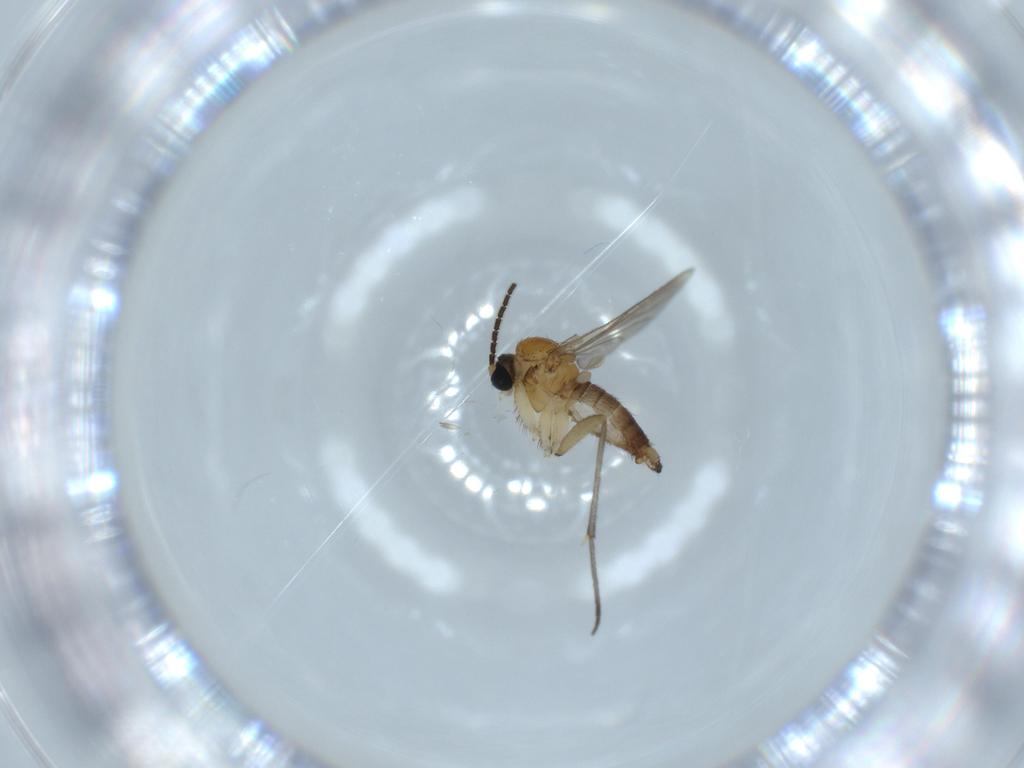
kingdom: Animalia
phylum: Arthropoda
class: Insecta
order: Diptera
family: Sciaridae
